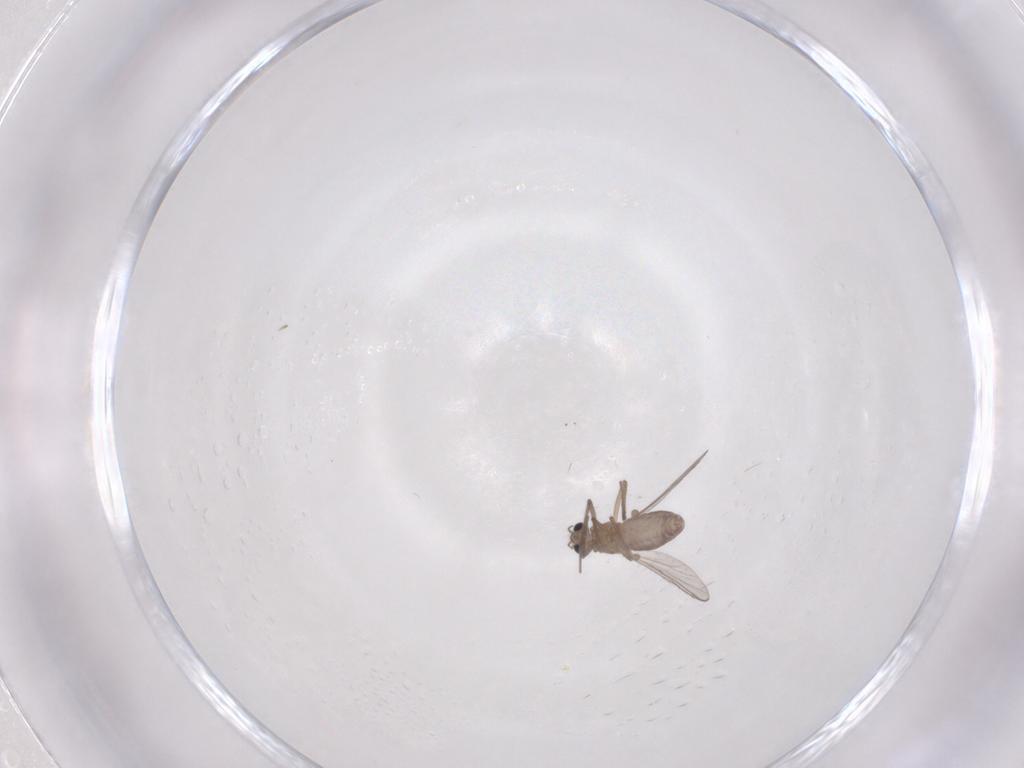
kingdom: Animalia
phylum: Arthropoda
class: Insecta
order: Diptera
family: Chironomidae
